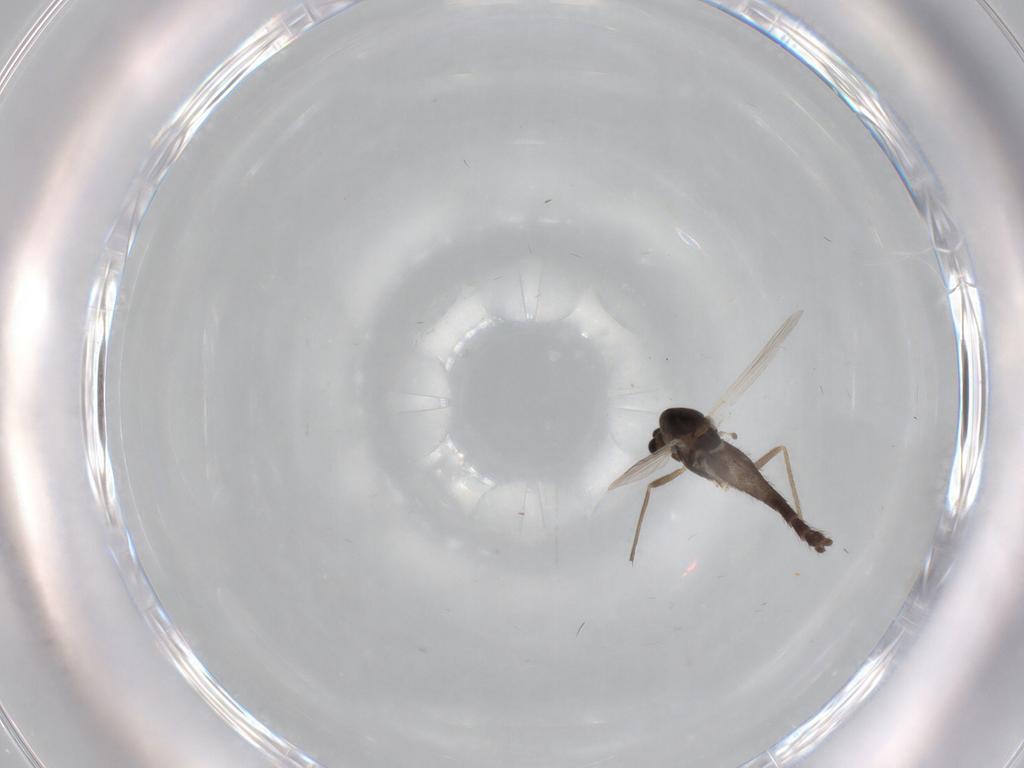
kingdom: Animalia
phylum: Arthropoda
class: Insecta
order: Diptera
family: Chironomidae
